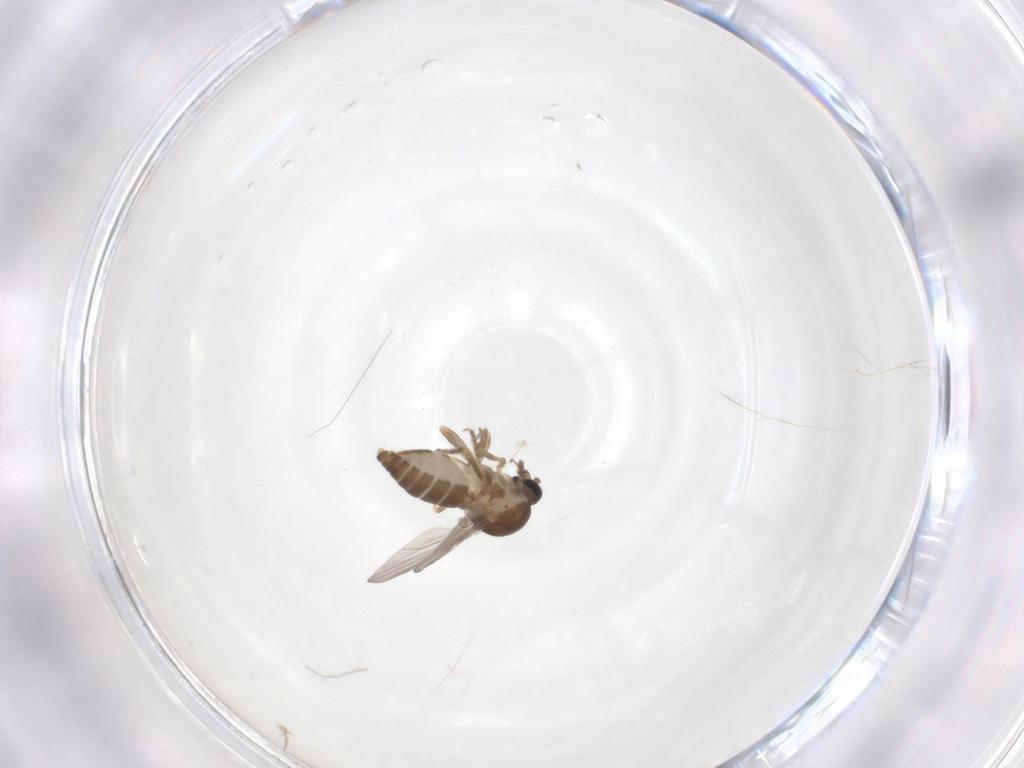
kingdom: Animalia
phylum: Arthropoda
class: Insecta
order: Diptera
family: Ceratopogonidae
